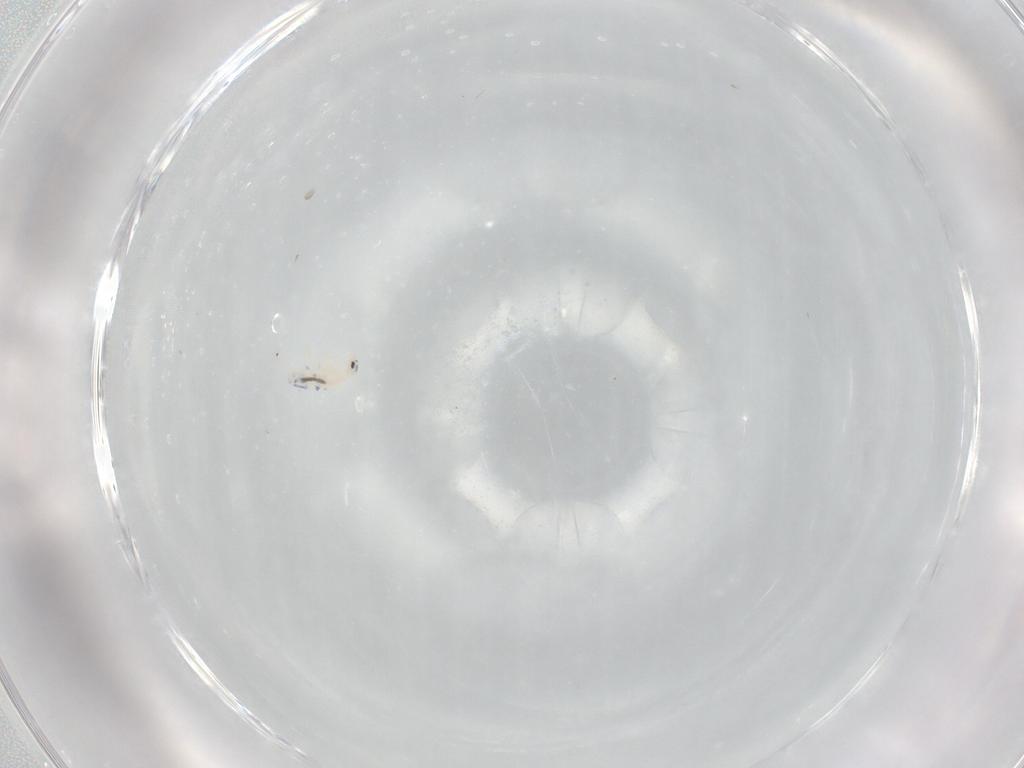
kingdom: Animalia
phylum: Arthropoda
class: Collembola
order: Entomobryomorpha
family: Entomobryidae
